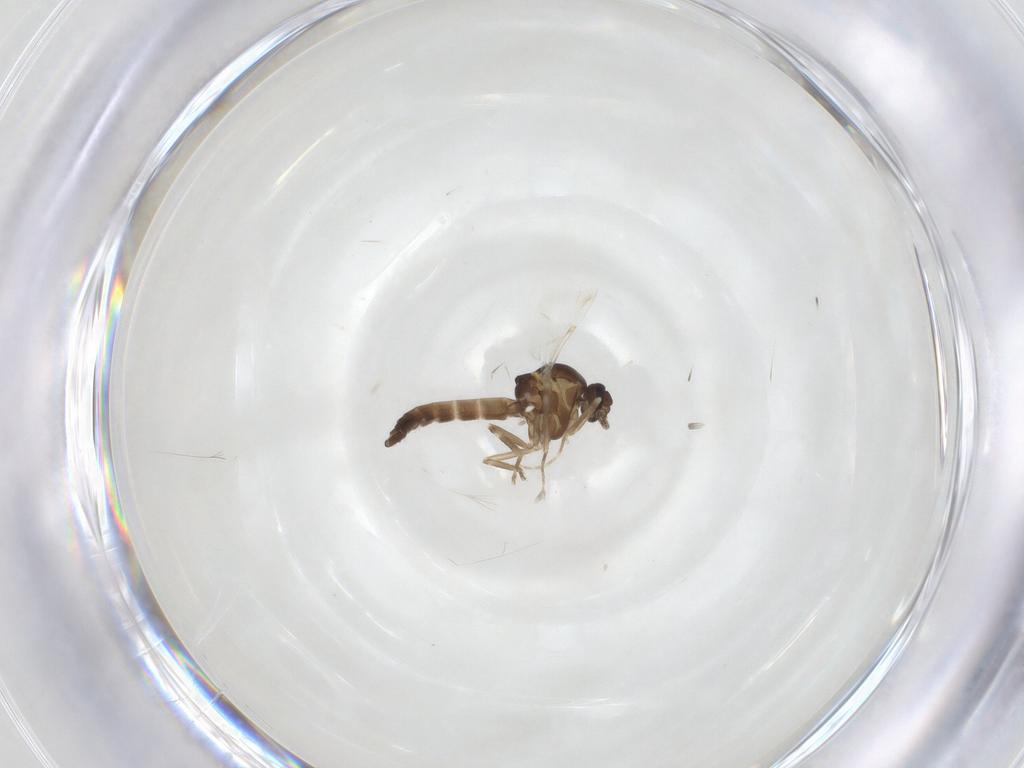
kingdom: Animalia
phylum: Arthropoda
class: Insecta
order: Diptera
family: Ceratopogonidae
